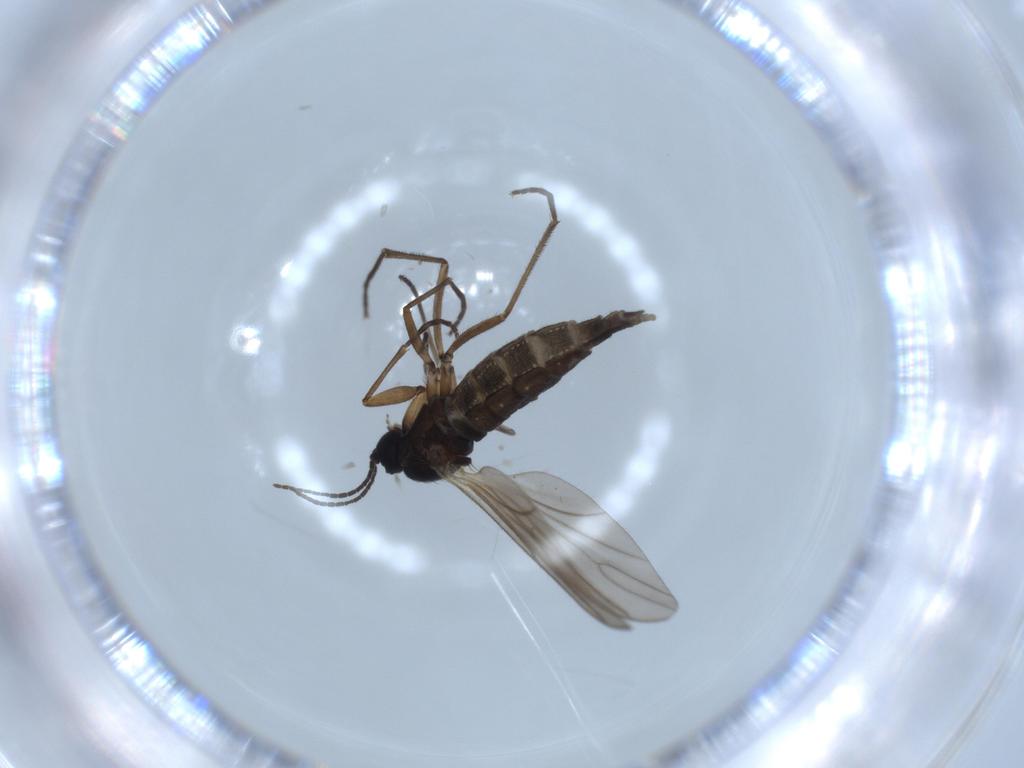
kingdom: Animalia
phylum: Arthropoda
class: Insecta
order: Diptera
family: Sciaridae
